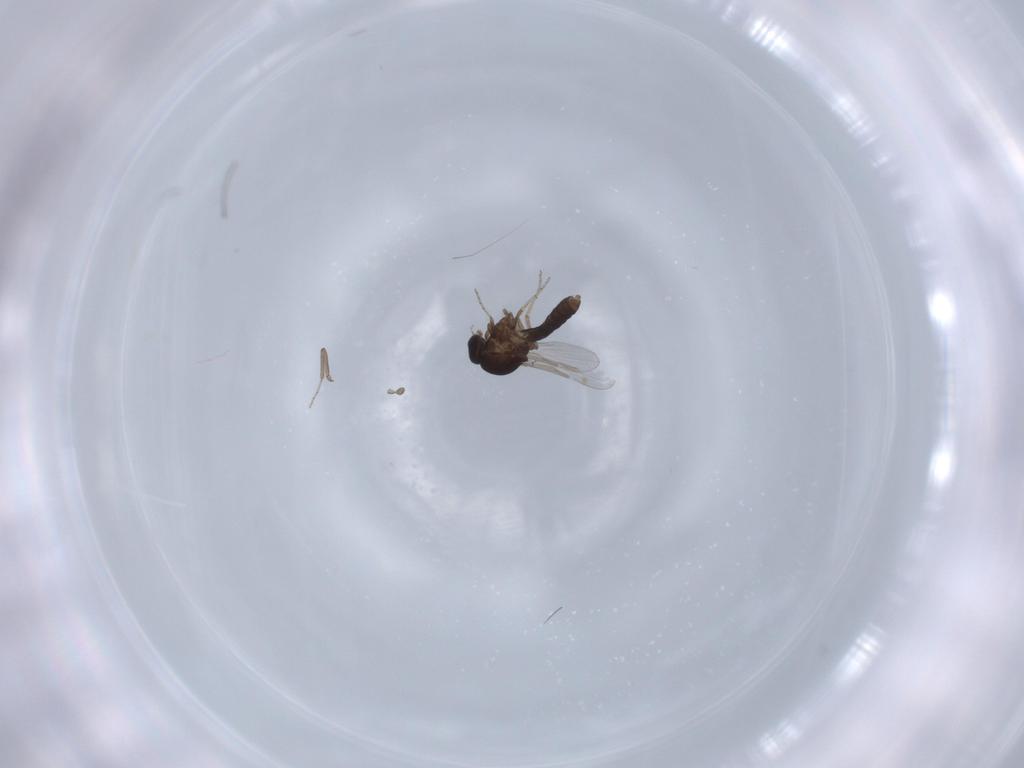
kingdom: Animalia
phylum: Arthropoda
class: Insecta
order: Diptera
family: Ceratopogonidae
